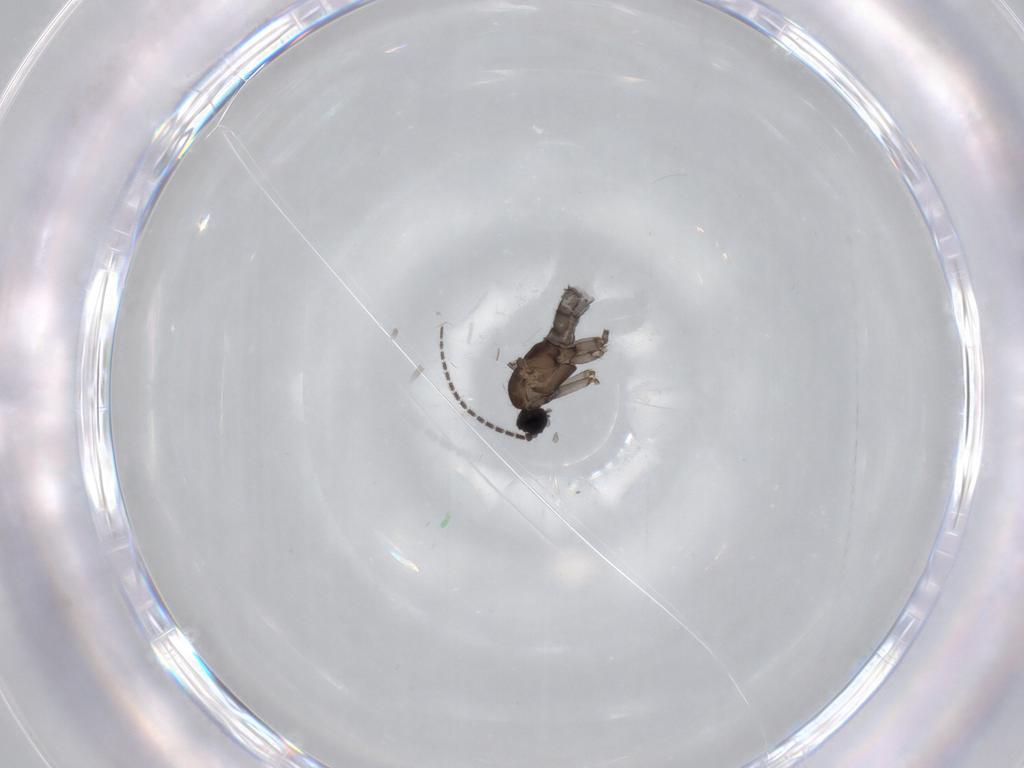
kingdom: Animalia
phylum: Arthropoda
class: Insecta
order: Diptera
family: Sciaridae
